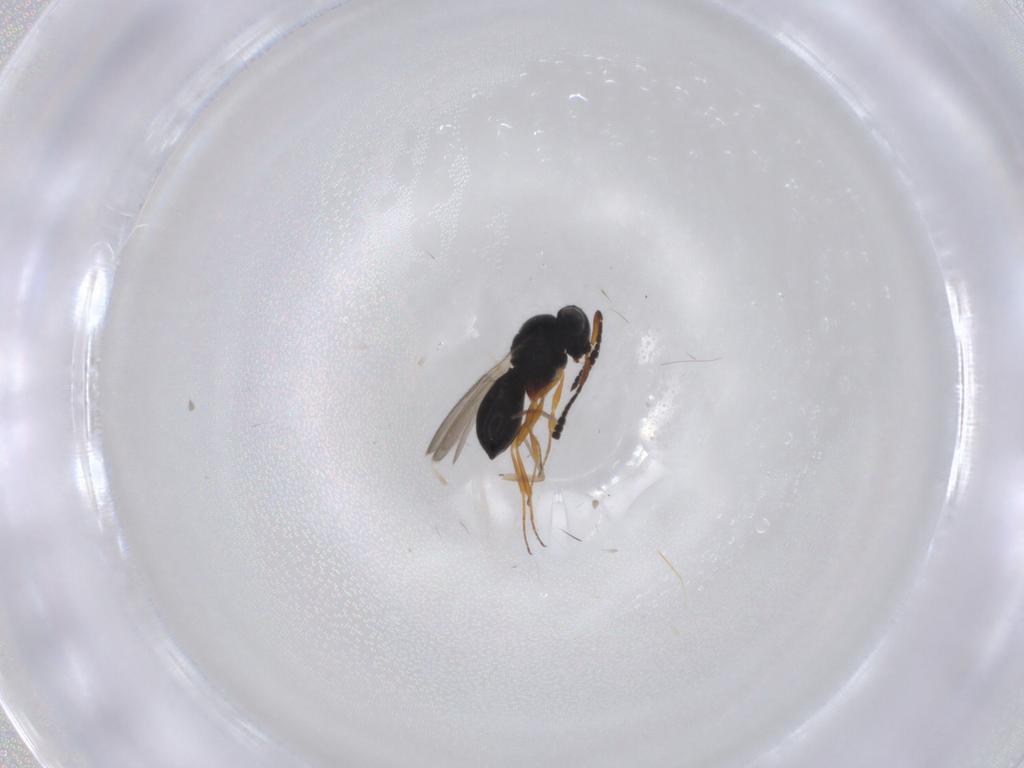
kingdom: Animalia
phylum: Arthropoda
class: Insecta
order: Hymenoptera
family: Scelionidae
